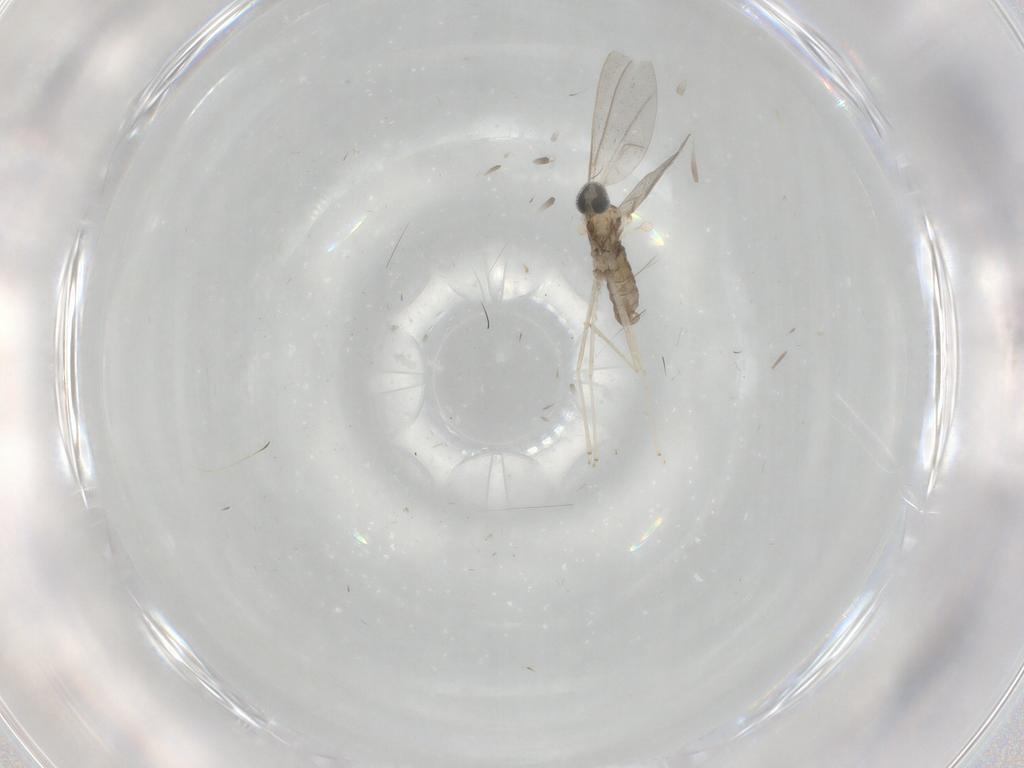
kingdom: Animalia
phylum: Arthropoda
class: Insecta
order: Diptera
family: Cecidomyiidae
